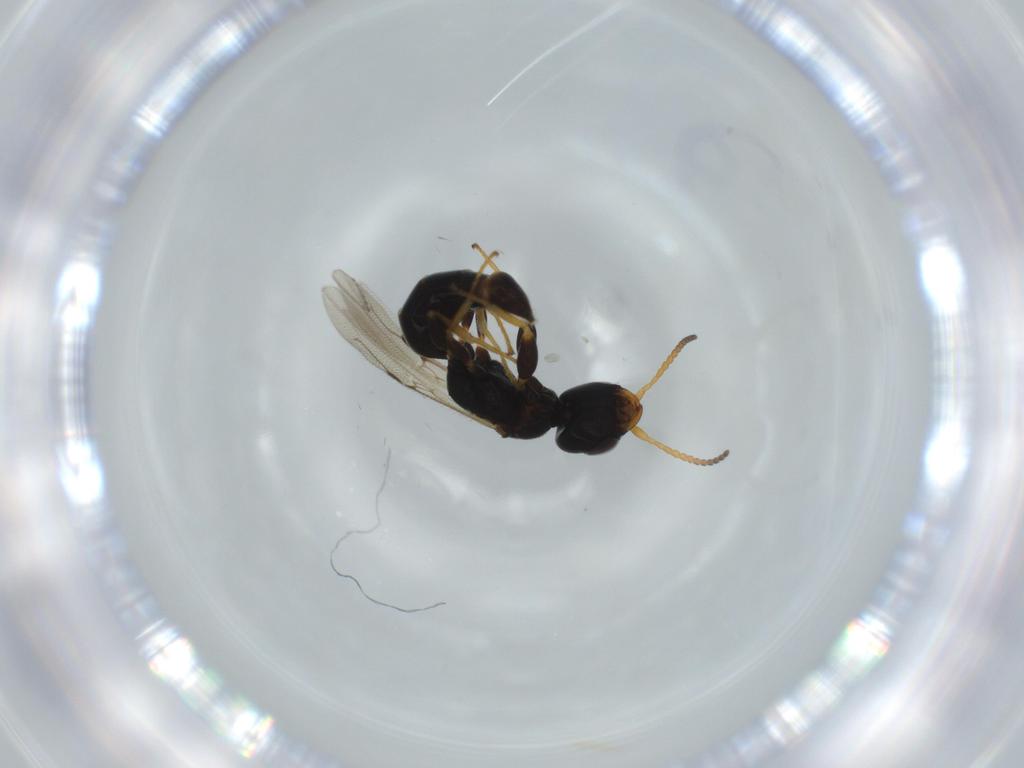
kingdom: Animalia
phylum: Arthropoda
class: Insecta
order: Hymenoptera
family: Bethylidae
